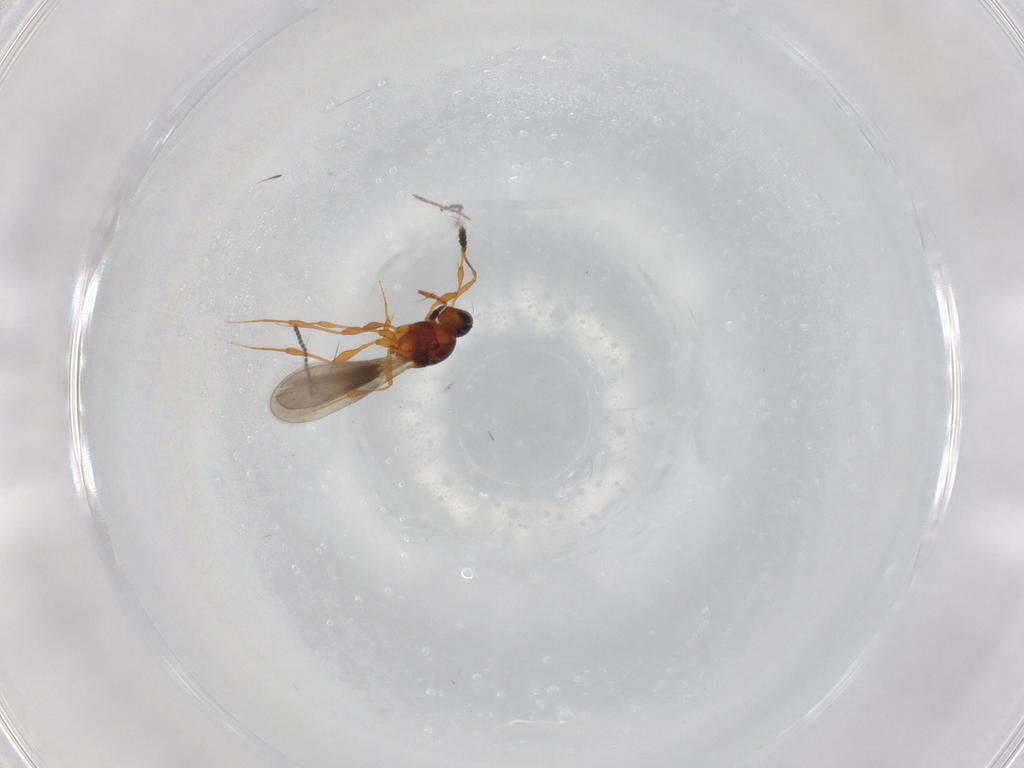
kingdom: Animalia
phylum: Arthropoda
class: Insecta
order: Hymenoptera
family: Platygastridae
